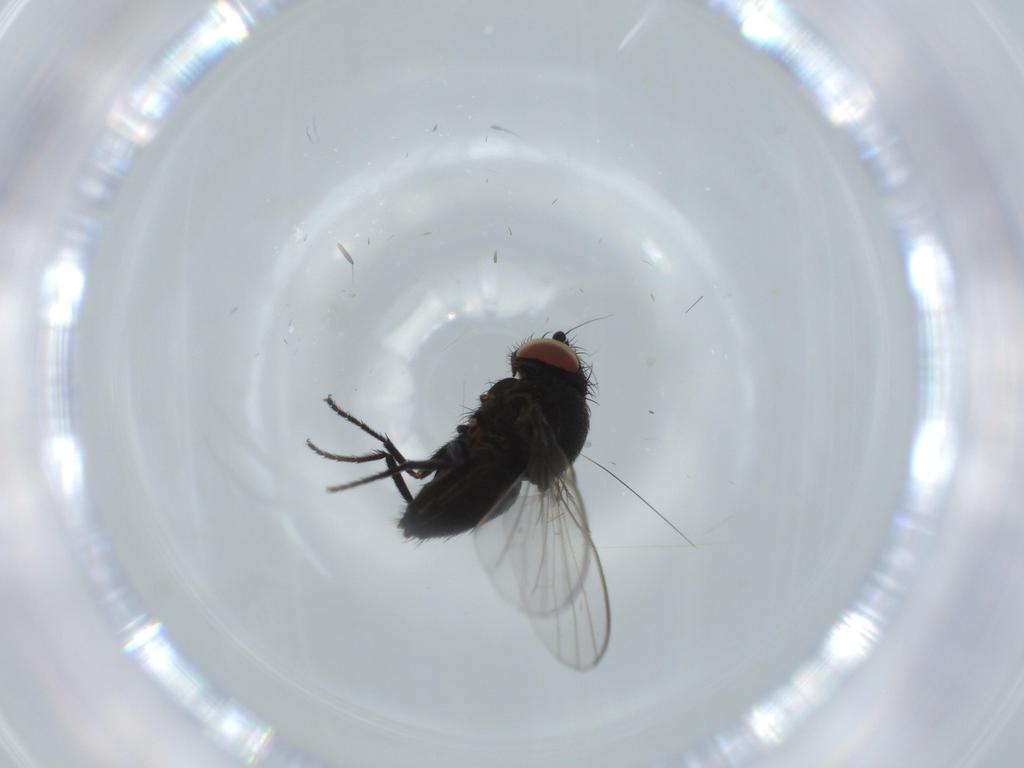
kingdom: Animalia
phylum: Arthropoda
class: Insecta
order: Diptera
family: Milichiidae
